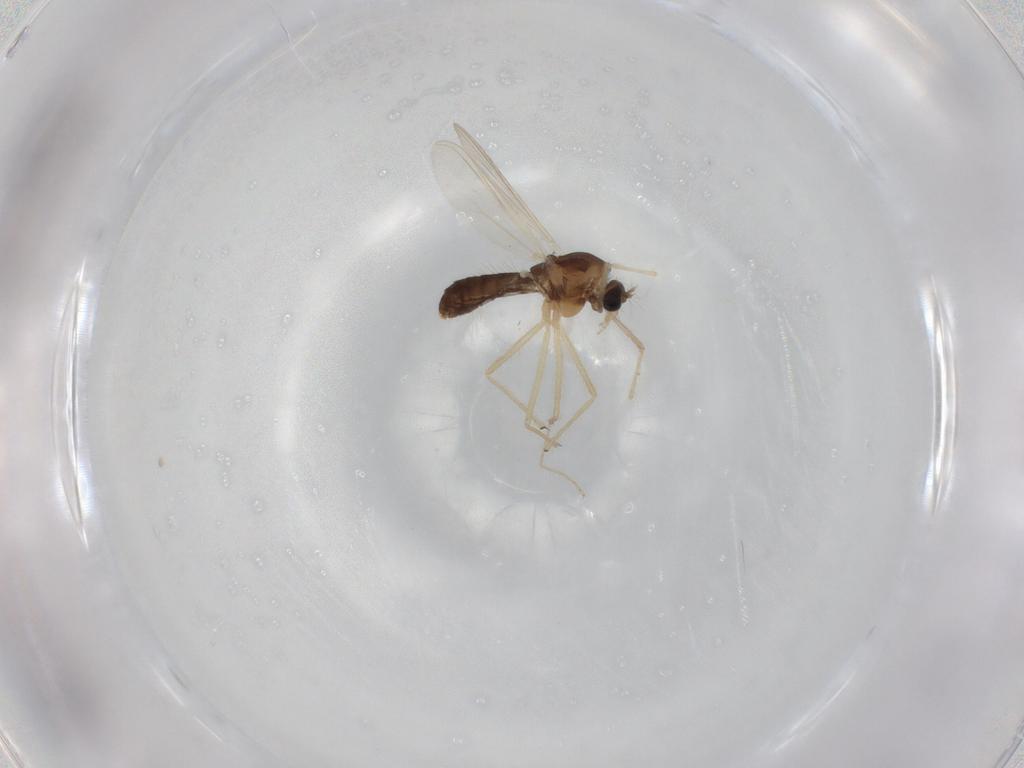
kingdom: Animalia
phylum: Arthropoda
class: Insecta
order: Diptera
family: Chironomidae
